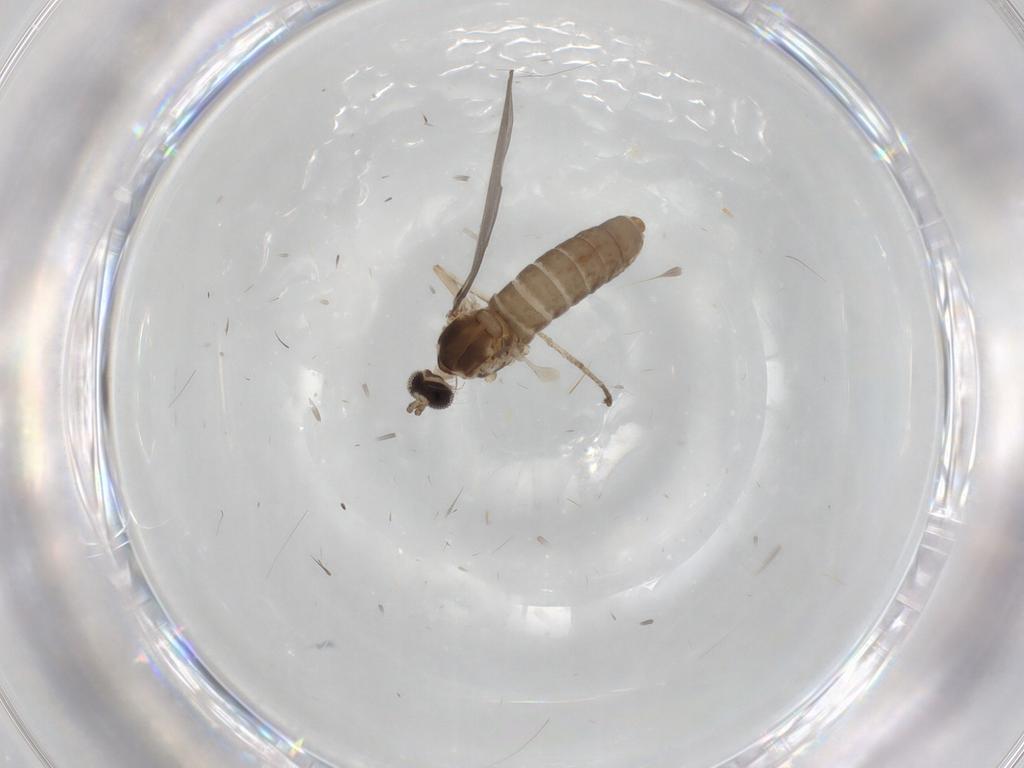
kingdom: Animalia
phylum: Arthropoda
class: Insecta
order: Diptera
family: Cecidomyiidae
